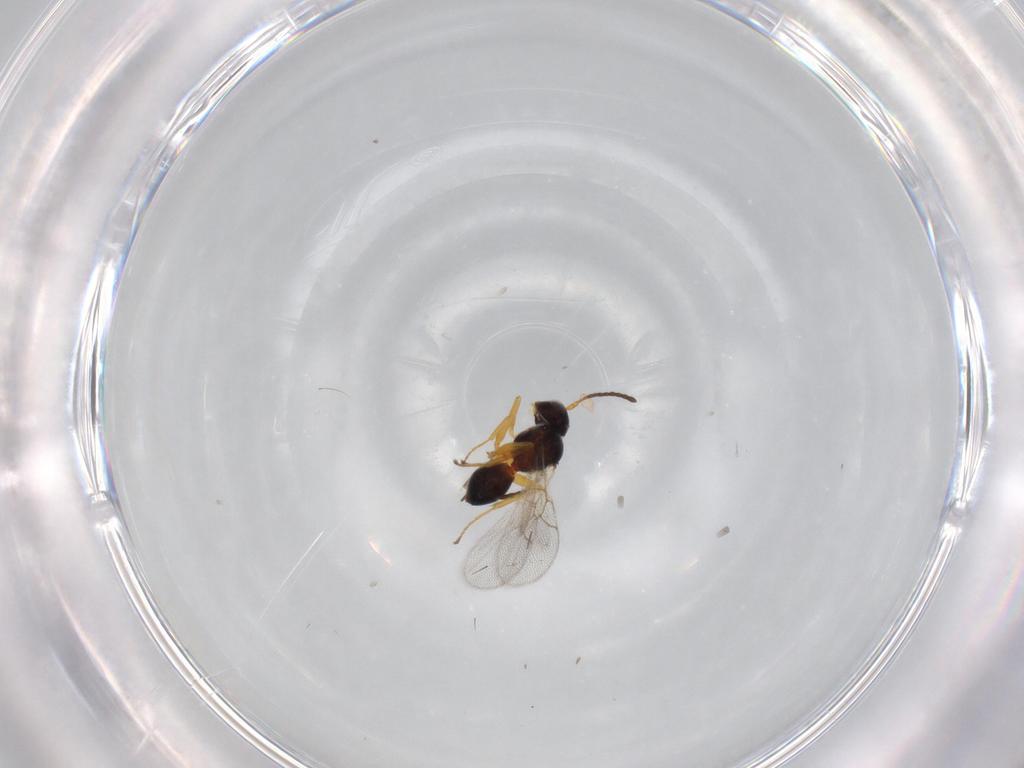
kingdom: Animalia
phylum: Arthropoda
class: Insecta
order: Hymenoptera
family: Figitidae
